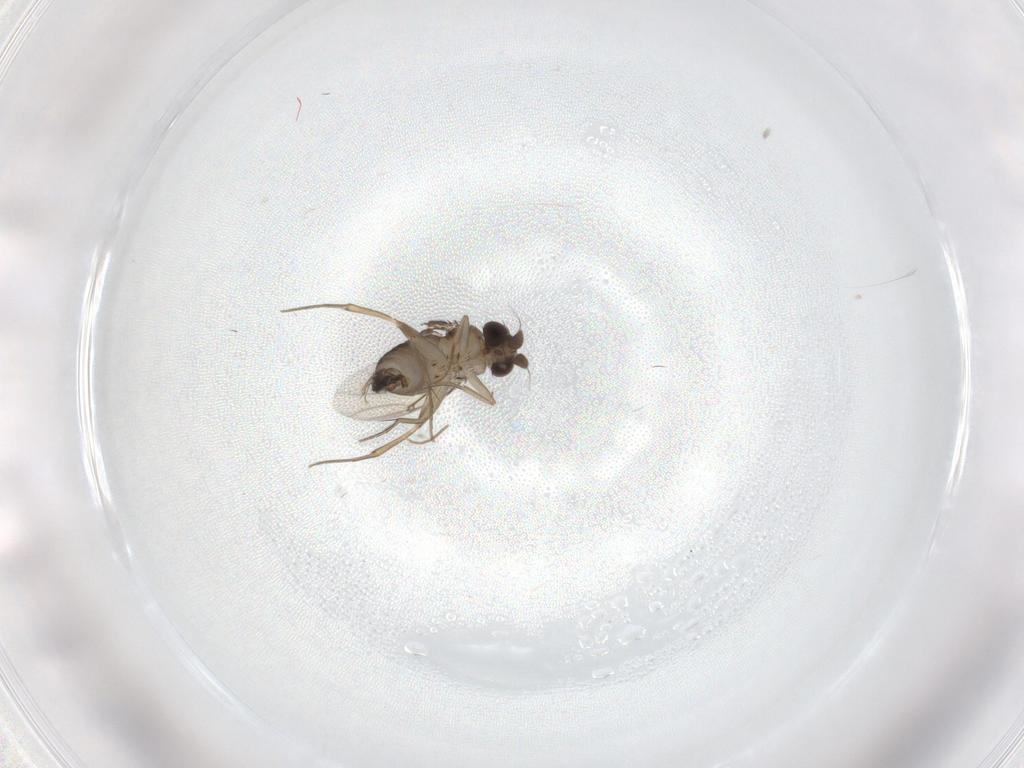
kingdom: Animalia
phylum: Arthropoda
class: Insecta
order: Diptera
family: Phoridae
